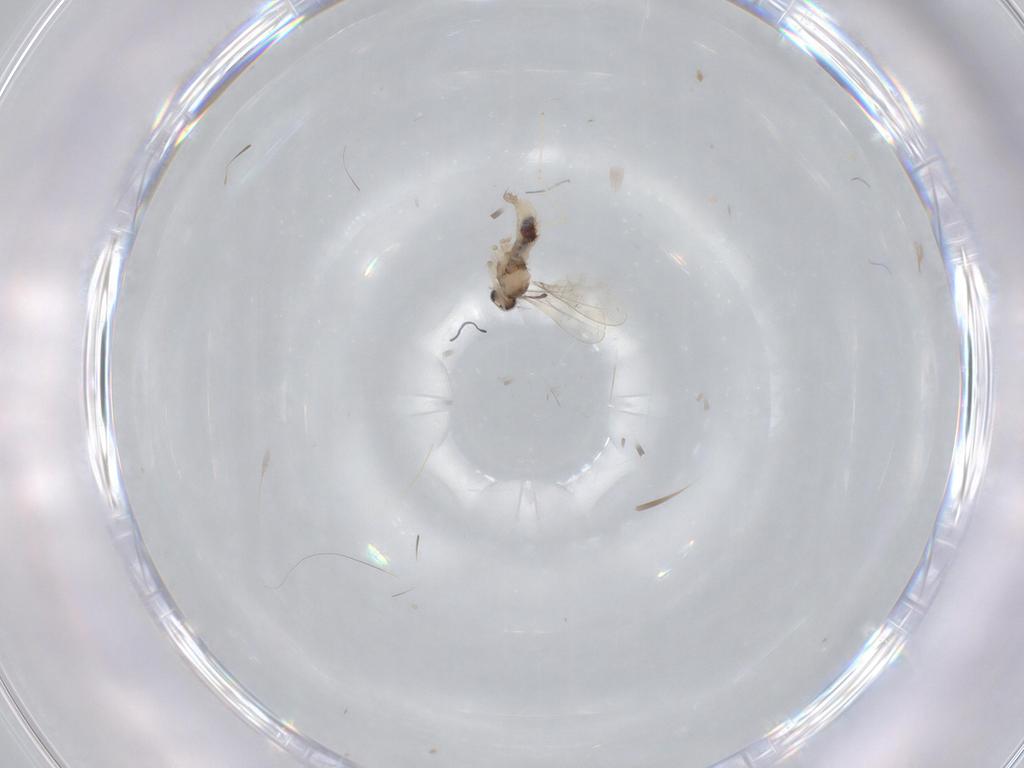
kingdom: Animalia
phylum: Arthropoda
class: Insecta
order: Diptera
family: Cecidomyiidae
